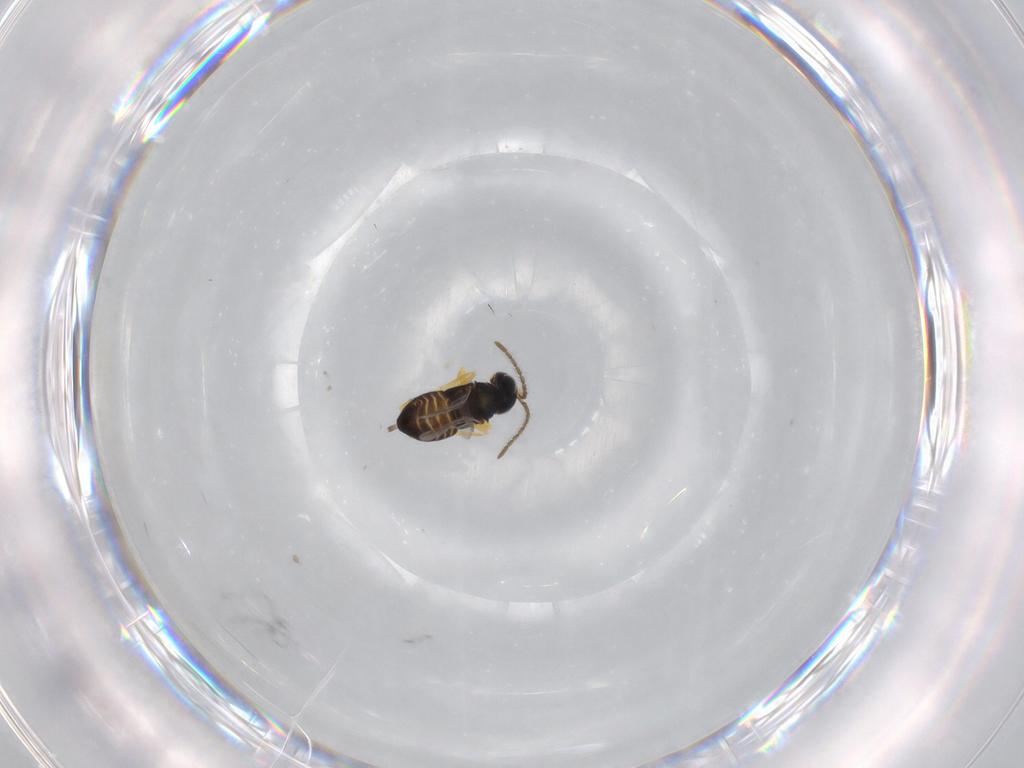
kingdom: Animalia
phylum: Arthropoda
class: Insecta
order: Hymenoptera
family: Encyrtidae
